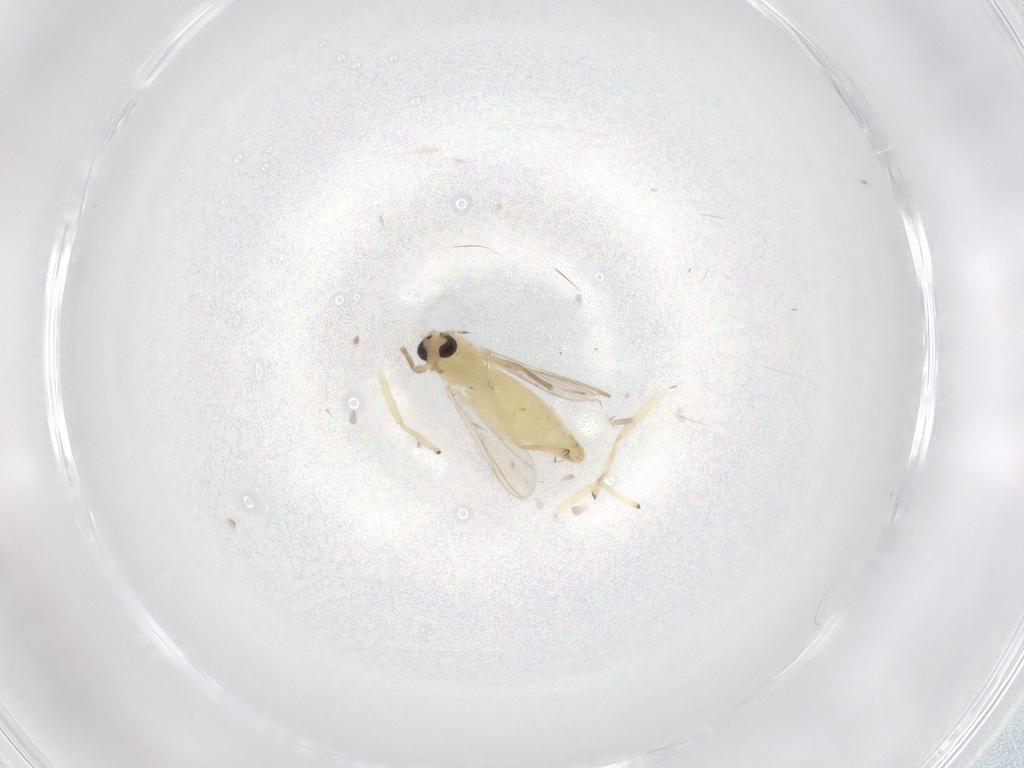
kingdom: Animalia
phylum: Arthropoda
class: Insecta
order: Diptera
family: Chironomidae
